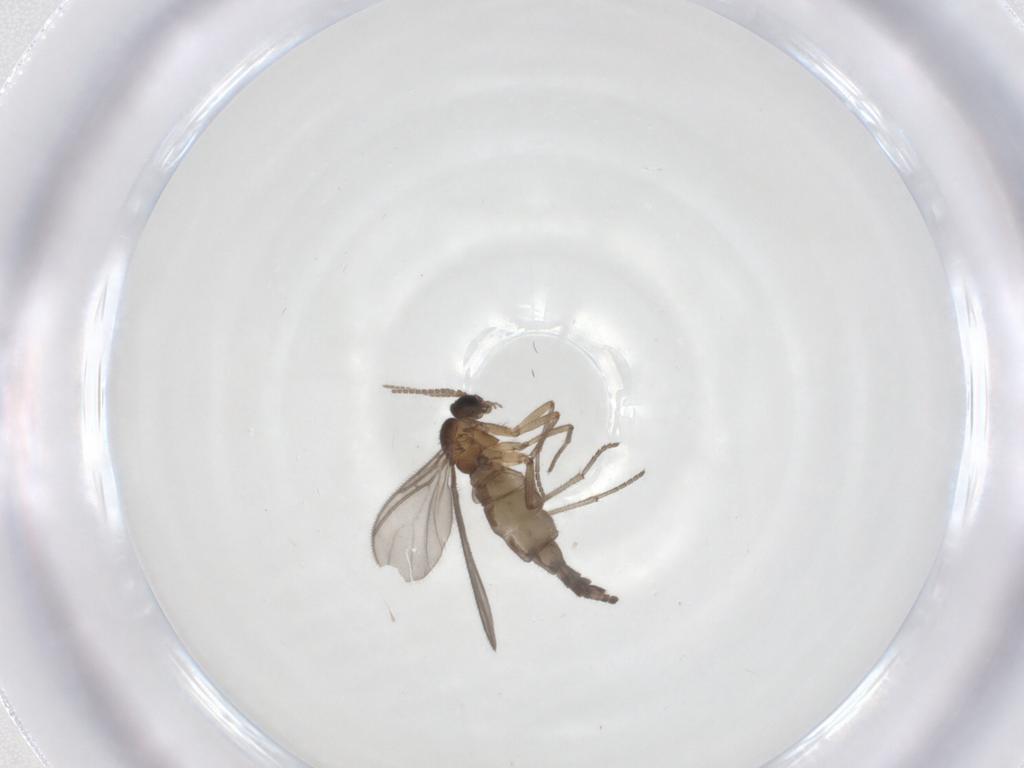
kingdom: Animalia
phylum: Arthropoda
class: Insecta
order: Diptera
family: Sciaridae
